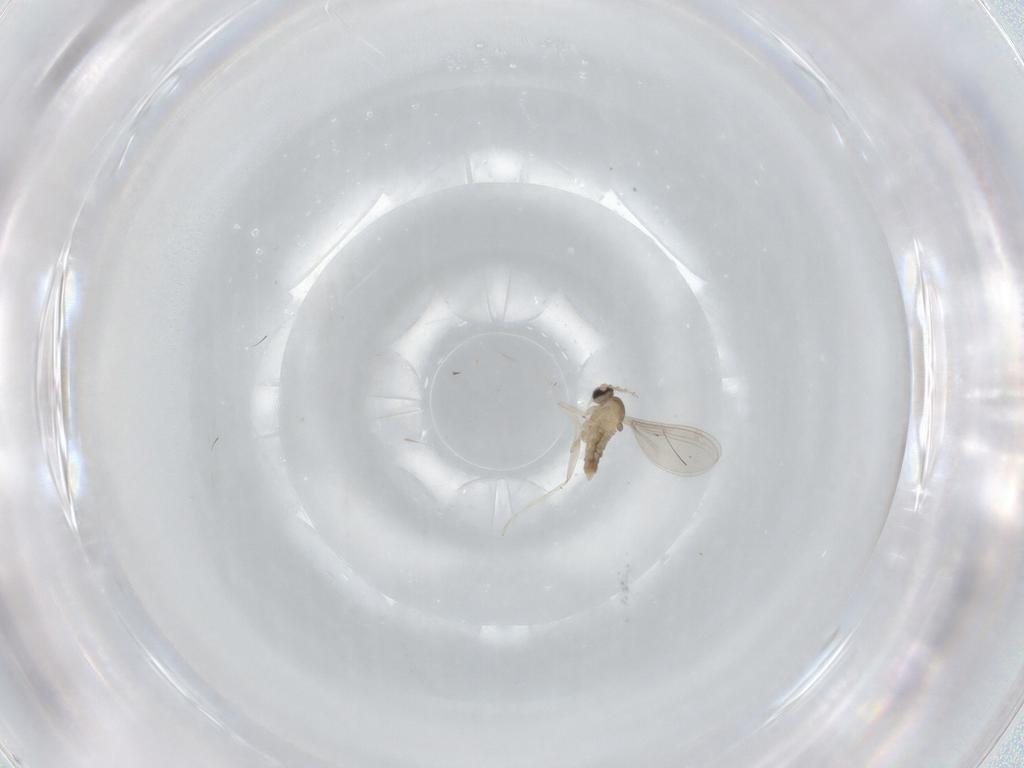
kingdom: Animalia
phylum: Arthropoda
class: Insecta
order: Diptera
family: Cecidomyiidae
